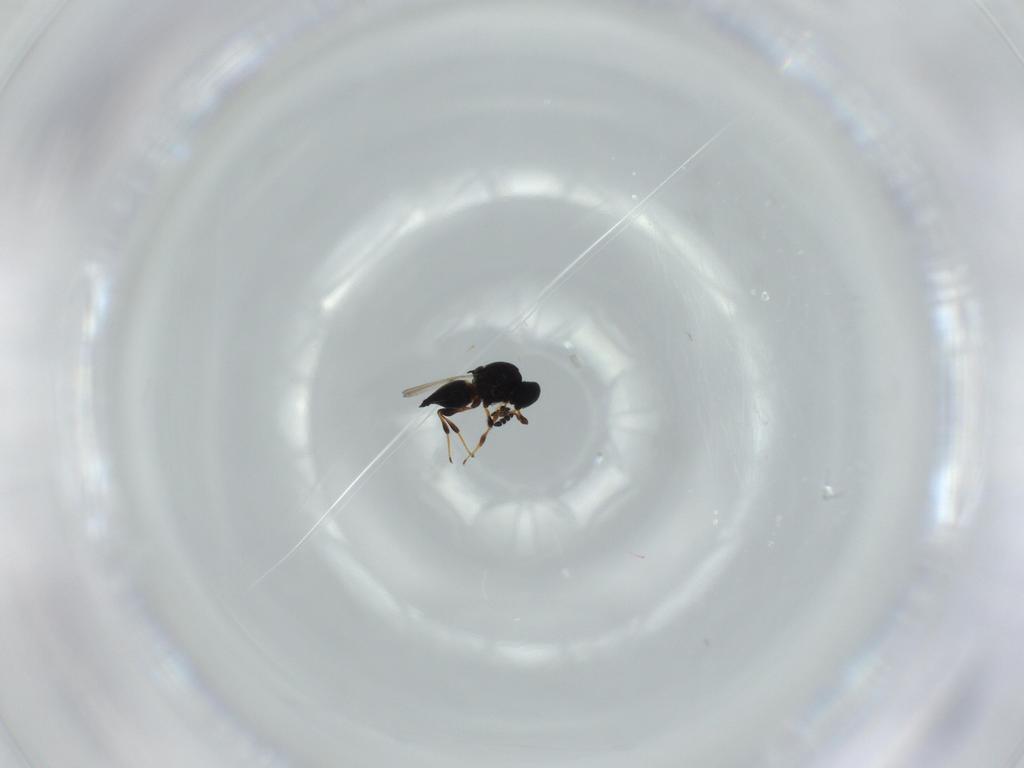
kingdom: Animalia
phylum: Arthropoda
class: Insecta
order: Hymenoptera
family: Platygastridae
